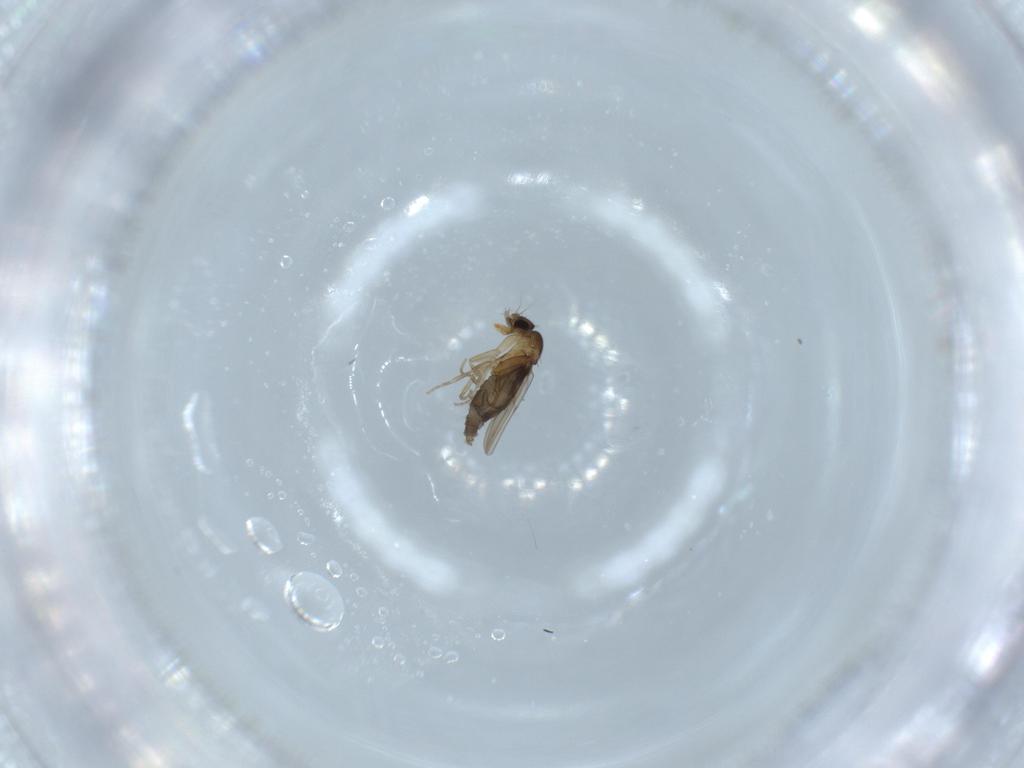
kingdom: Animalia
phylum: Arthropoda
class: Insecta
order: Diptera
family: Phoridae
